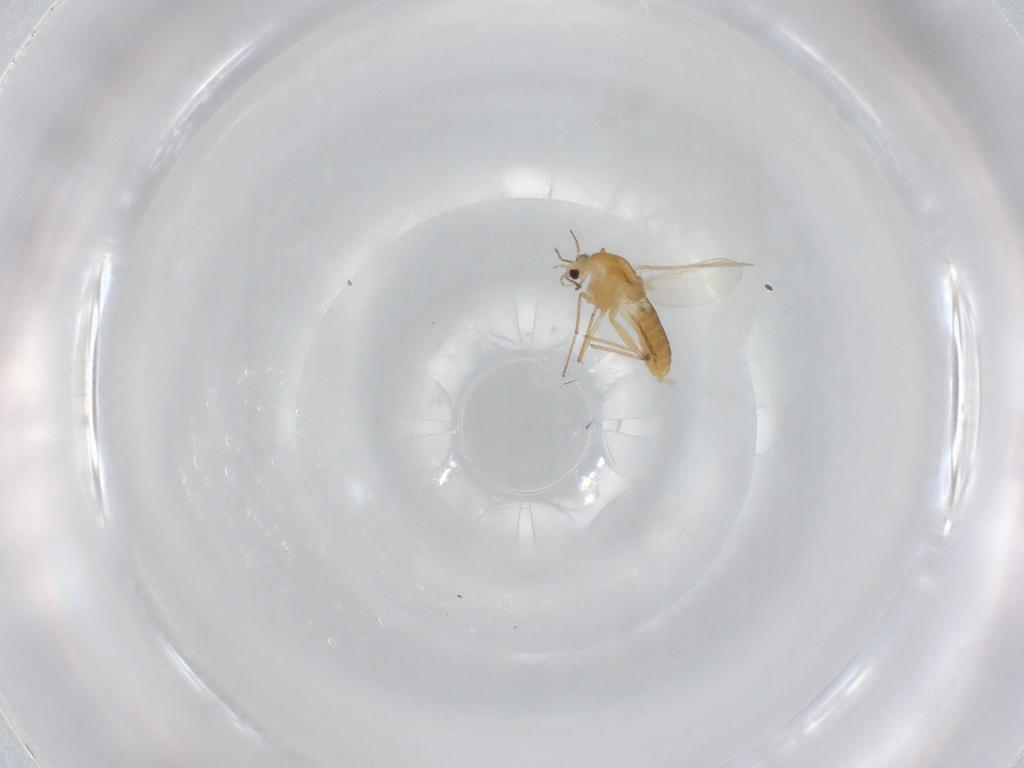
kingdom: Animalia
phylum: Arthropoda
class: Insecta
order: Diptera
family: Chironomidae
